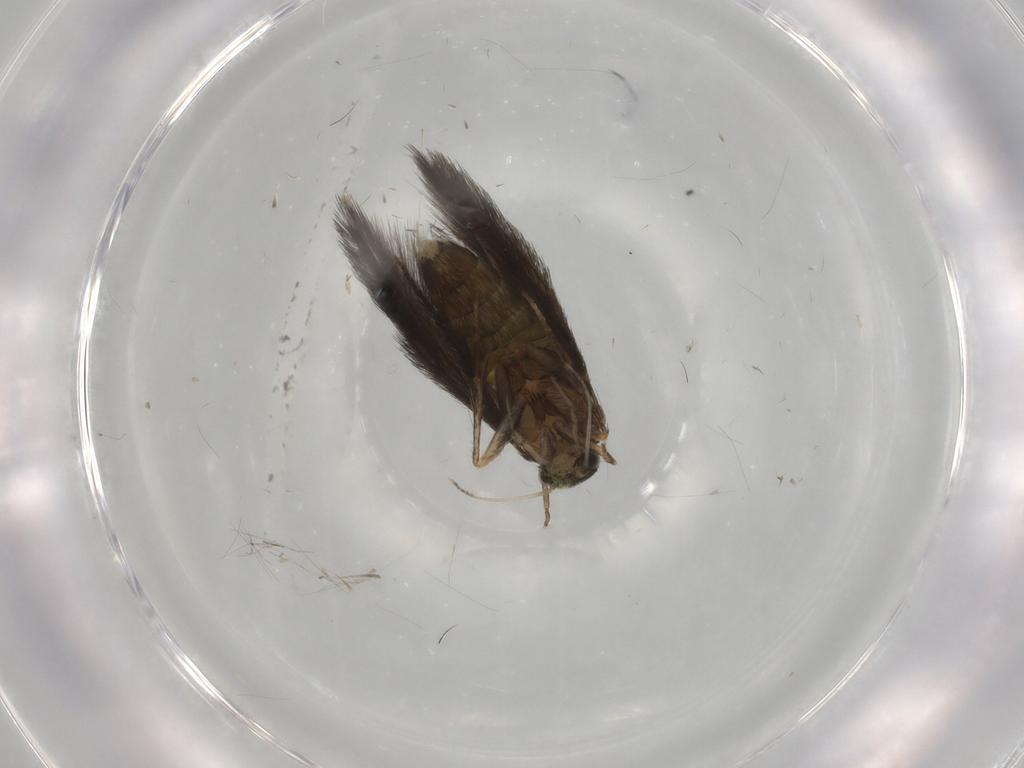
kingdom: Animalia
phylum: Arthropoda
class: Insecta
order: Trichoptera
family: Hydroptilidae
